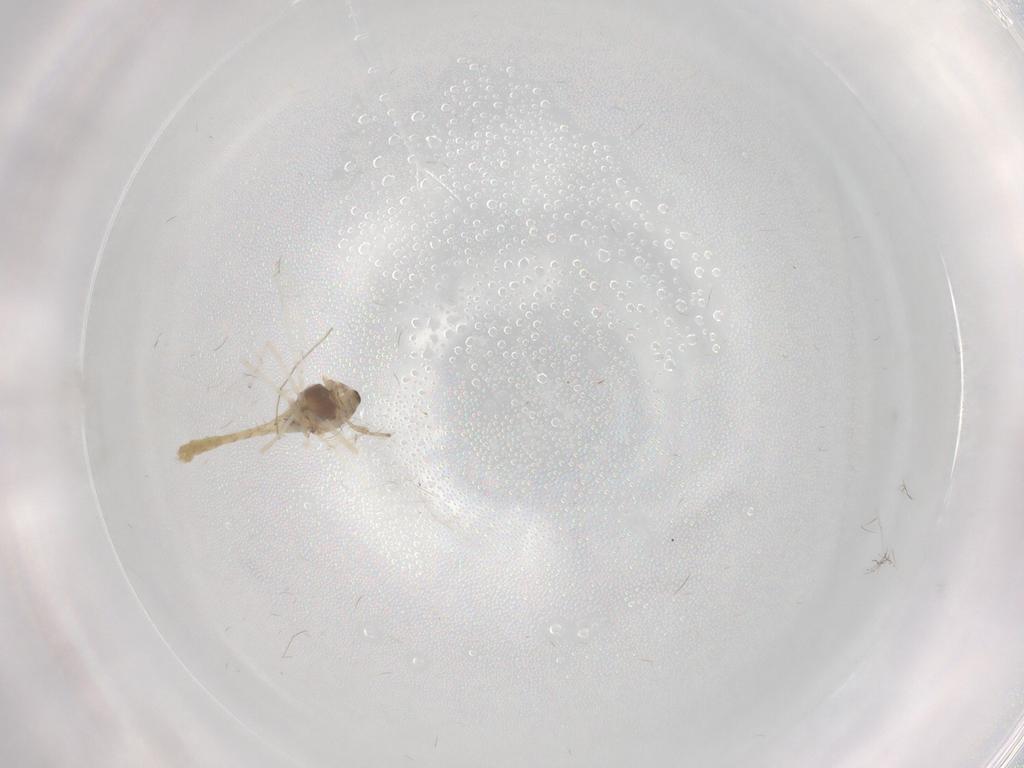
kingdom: Animalia
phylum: Arthropoda
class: Insecta
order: Diptera
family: Chironomidae
